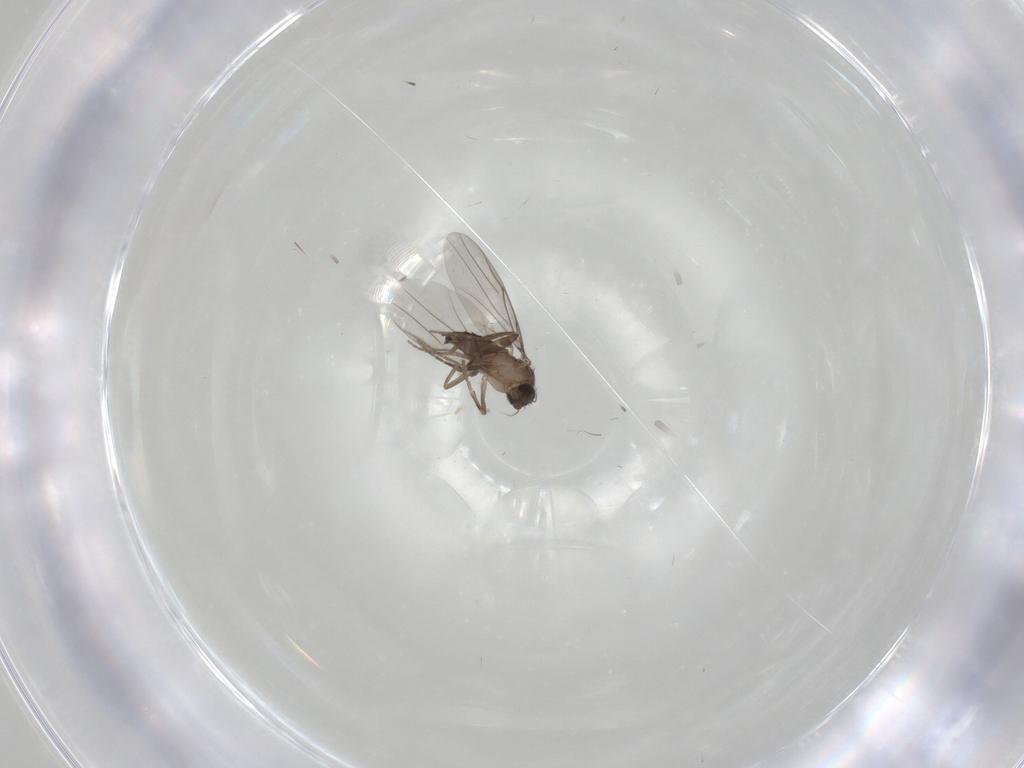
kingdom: Animalia
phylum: Arthropoda
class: Insecta
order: Diptera
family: Phoridae
